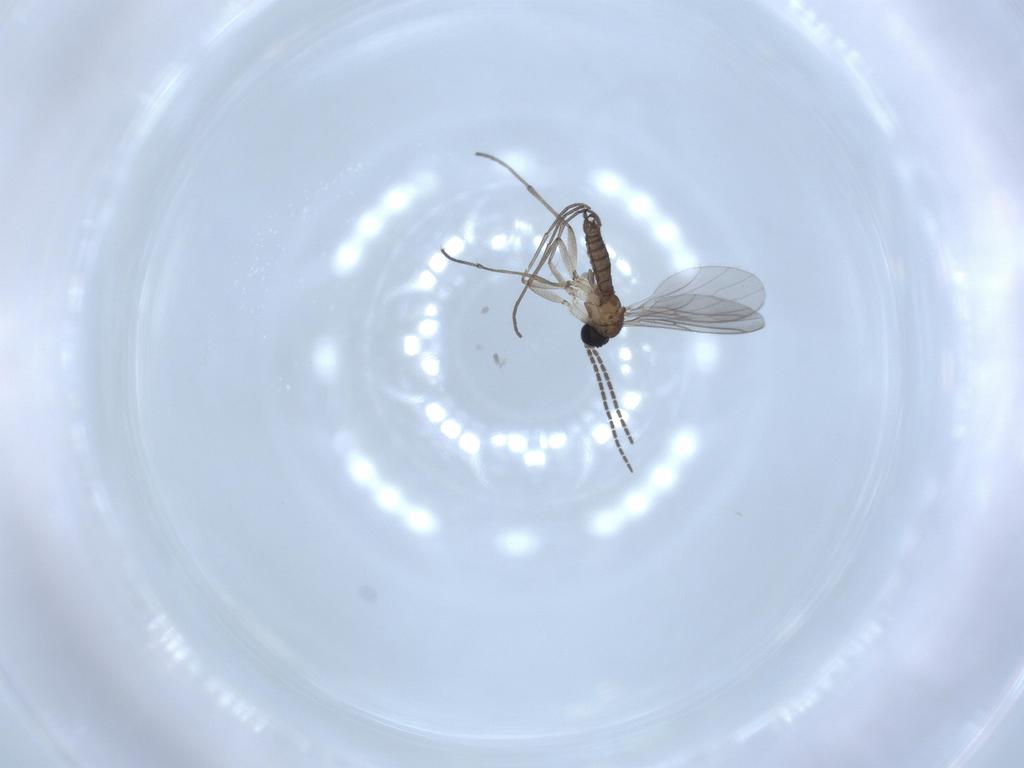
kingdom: Animalia
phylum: Arthropoda
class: Insecta
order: Diptera
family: Sciaridae
